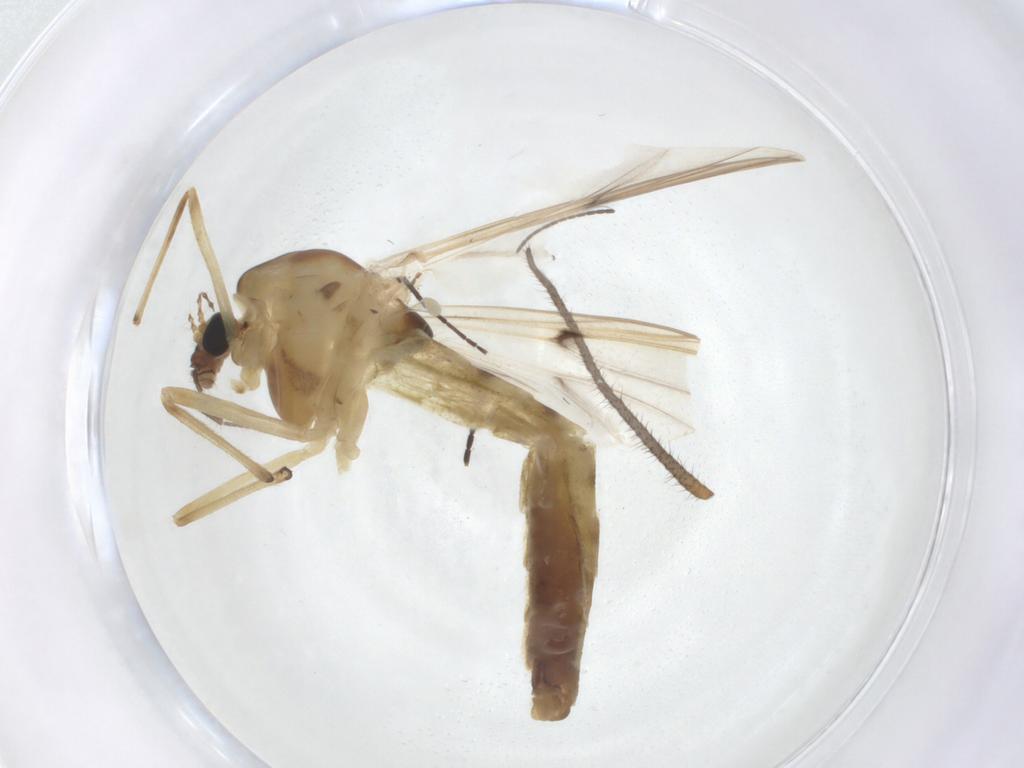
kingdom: Animalia
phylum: Arthropoda
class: Insecta
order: Diptera
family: Chironomidae
